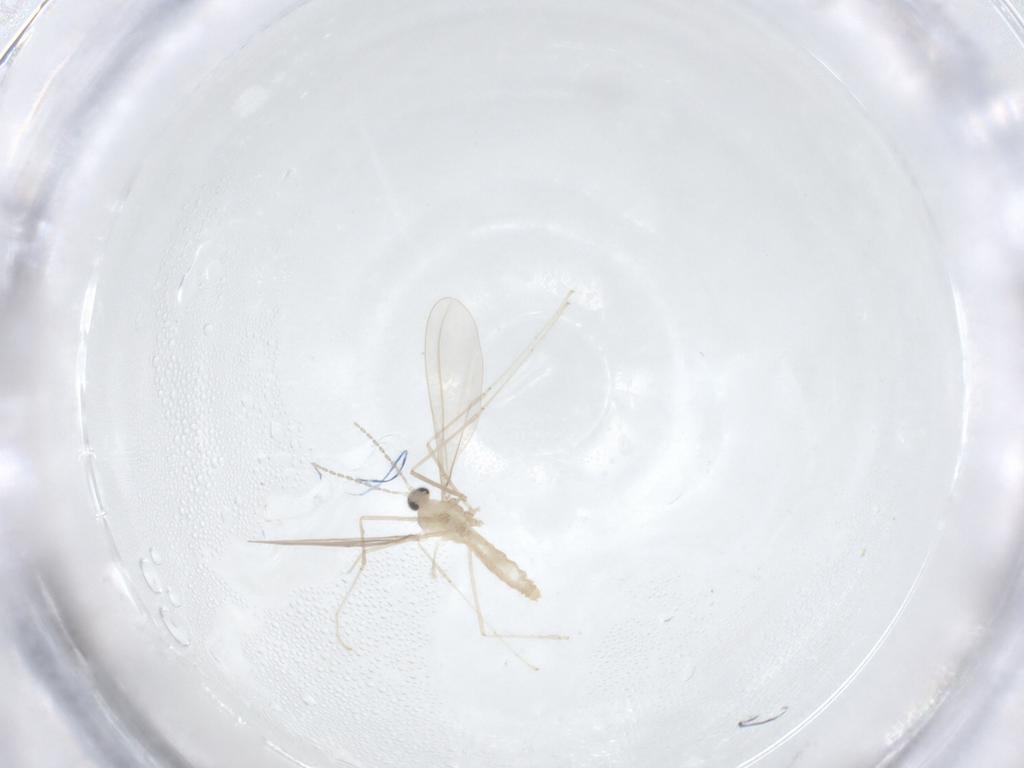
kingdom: Animalia
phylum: Arthropoda
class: Insecta
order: Diptera
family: Cecidomyiidae
